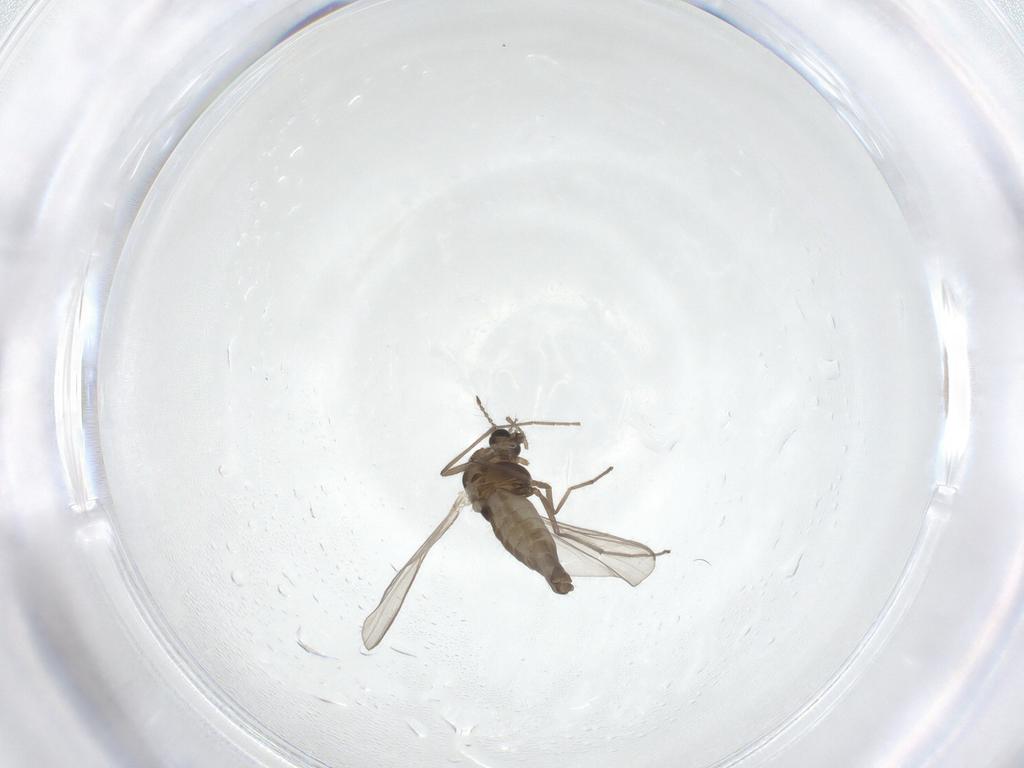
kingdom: Animalia
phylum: Arthropoda
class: Insecta
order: Diptera
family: Chironomidae
